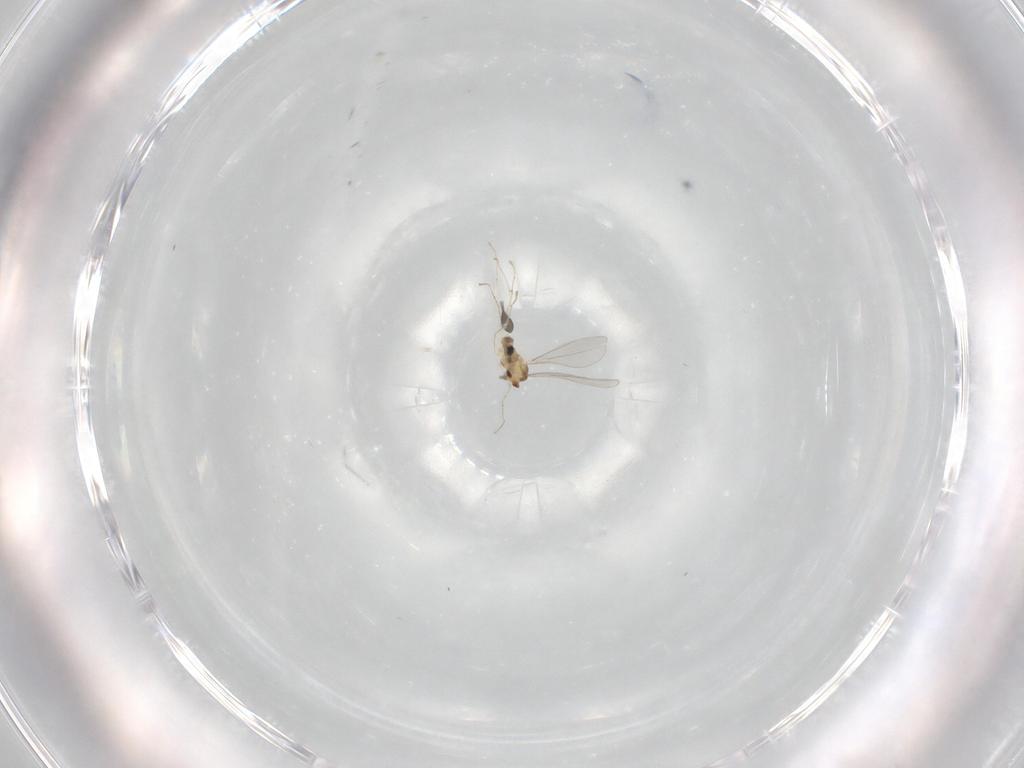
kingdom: Animalia
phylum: Arthropoda
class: Insecta
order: Diptera
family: Cecidomyiidae
